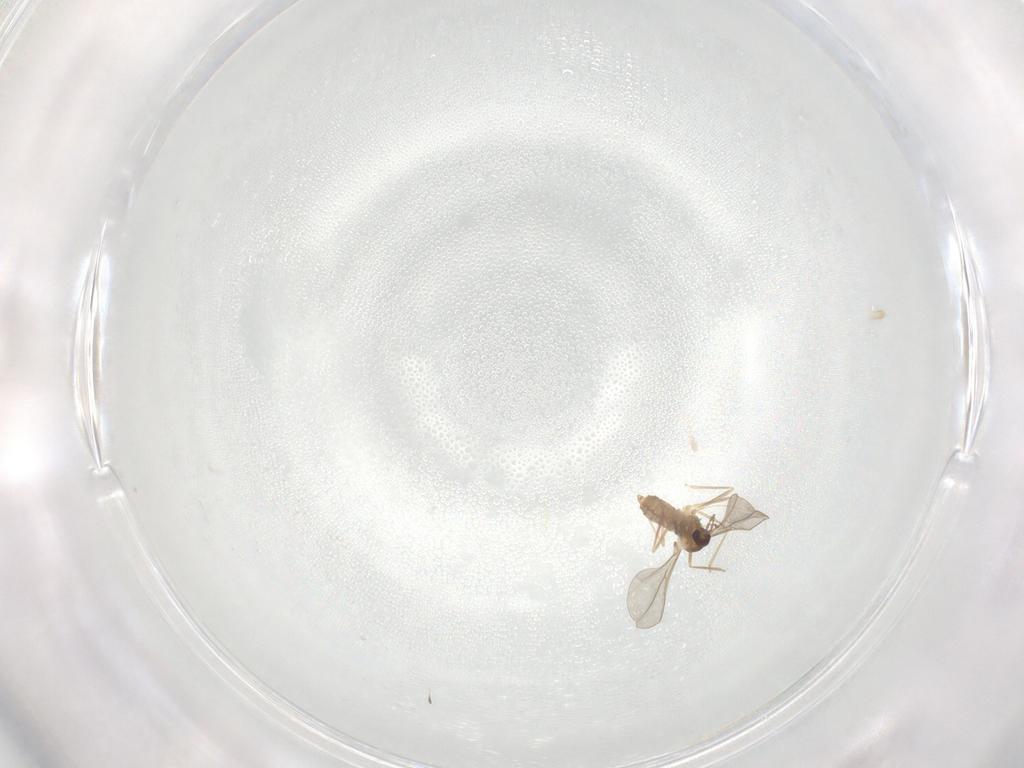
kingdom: Animalia
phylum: Arthropoda
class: Insecta
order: Diptera
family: Cecidomyiidae
